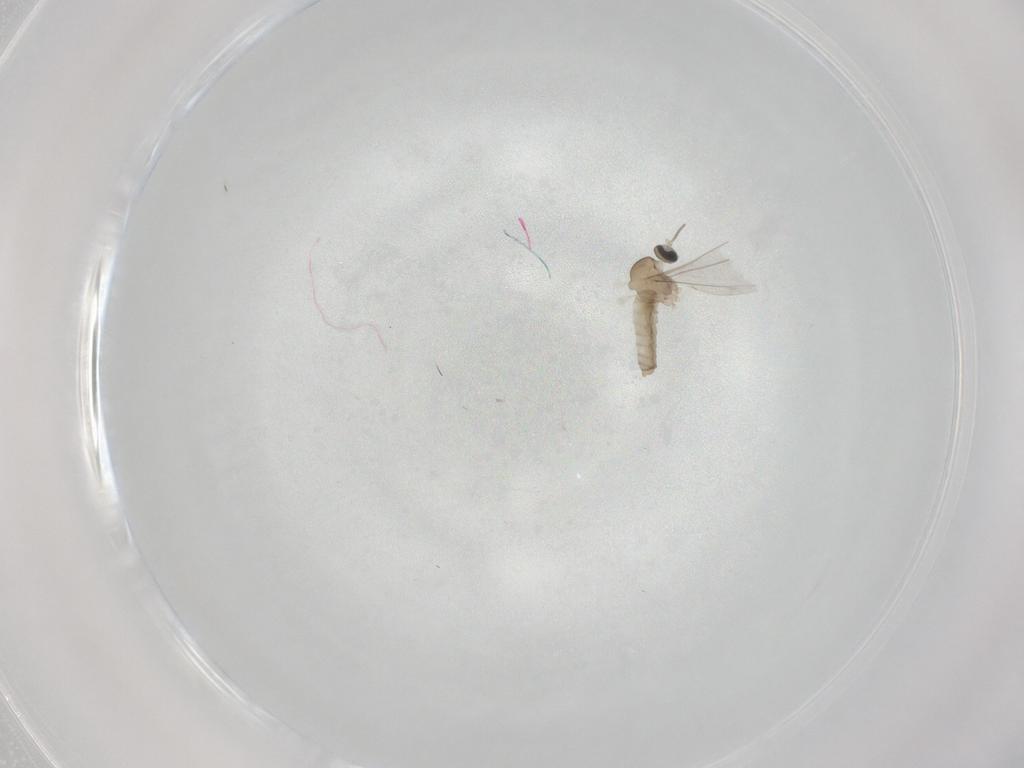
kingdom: Animalia
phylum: Arthropoda
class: Insecta
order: Diptera
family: Cecidomyiidae
